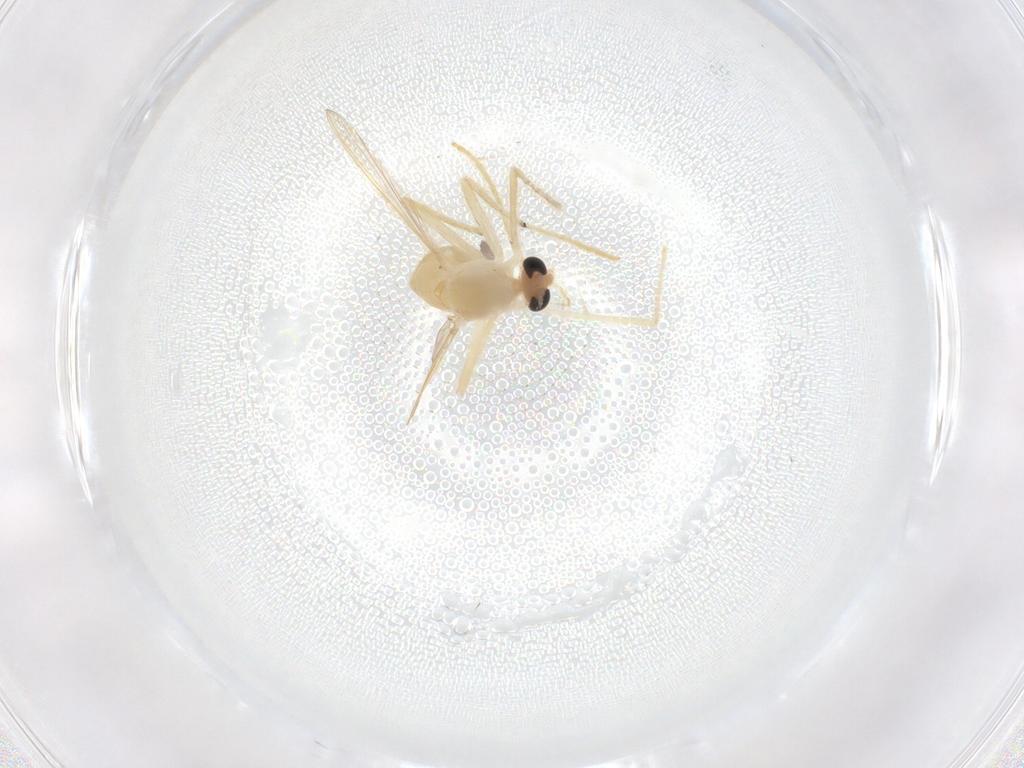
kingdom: Animalia
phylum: Arthropoda
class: Insecta
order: Diptera
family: Chironomidae
